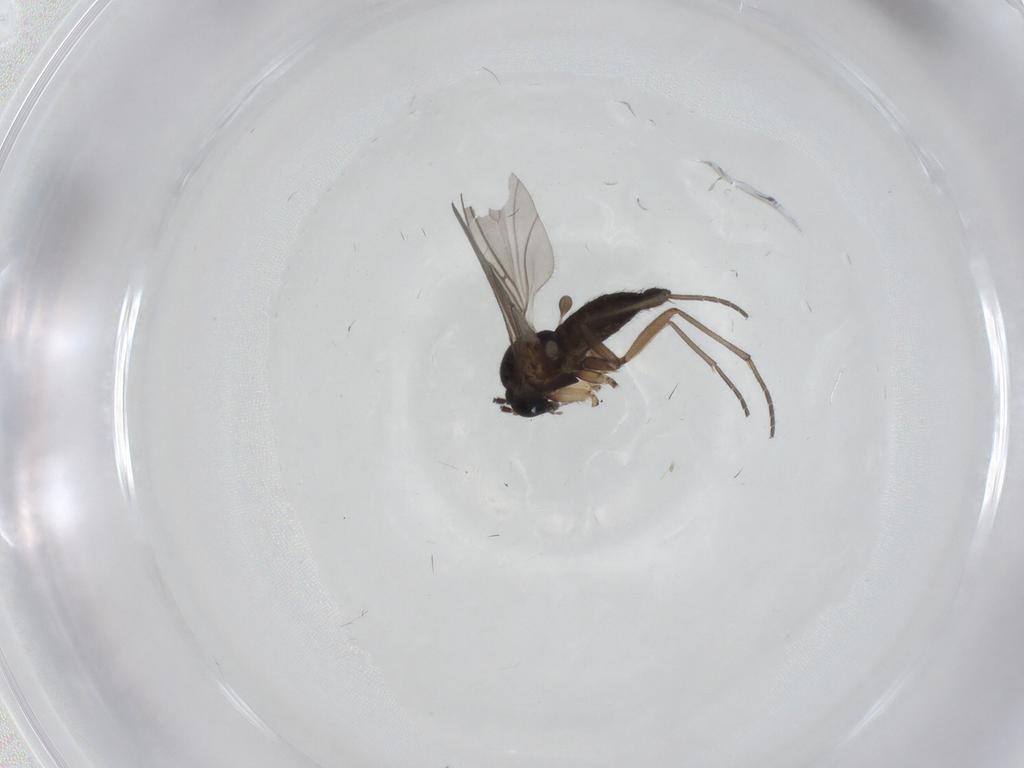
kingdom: Animalia
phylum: Arthropoda
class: Insecta
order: Diptera
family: Sciaridae
